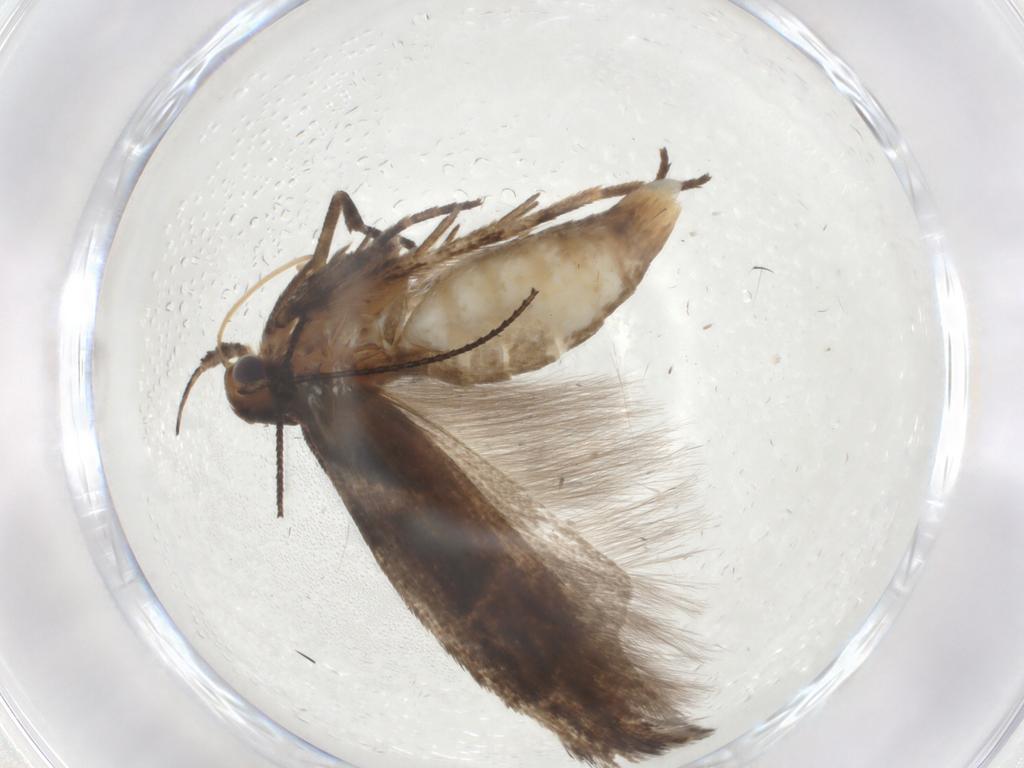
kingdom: Animalia
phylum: Arthropoda
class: Insecta
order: Lepidoptera
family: Gelechiidae
